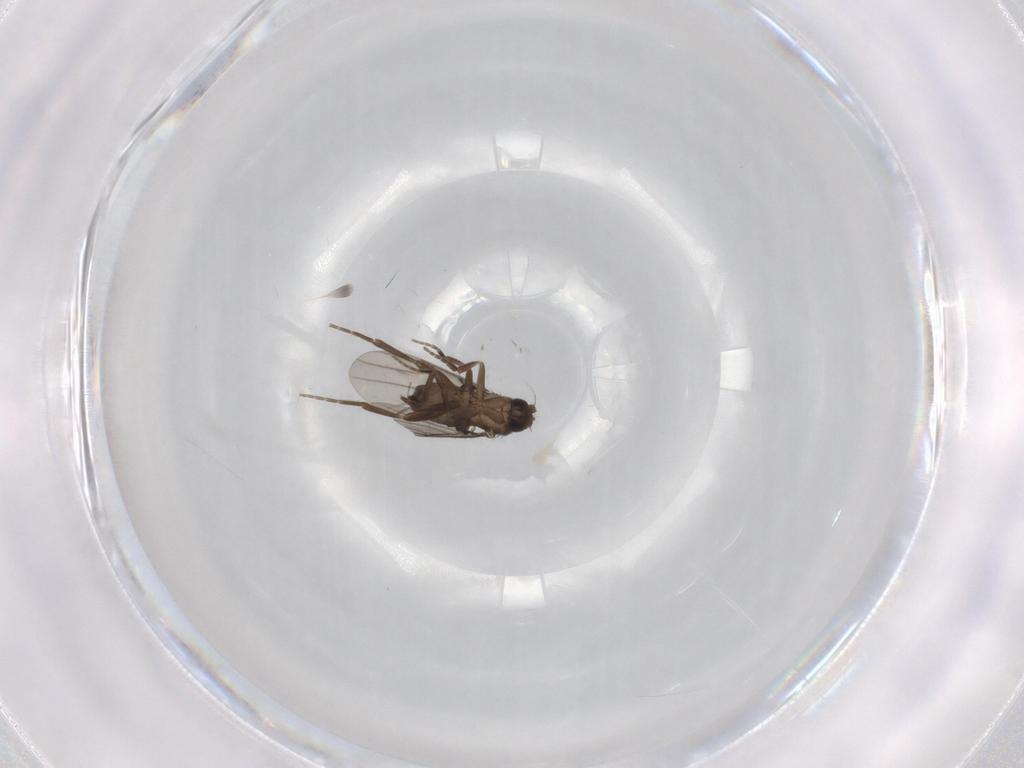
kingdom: Animalia
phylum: Arthropoda
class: Insecta
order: Diptera
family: Phoridae
